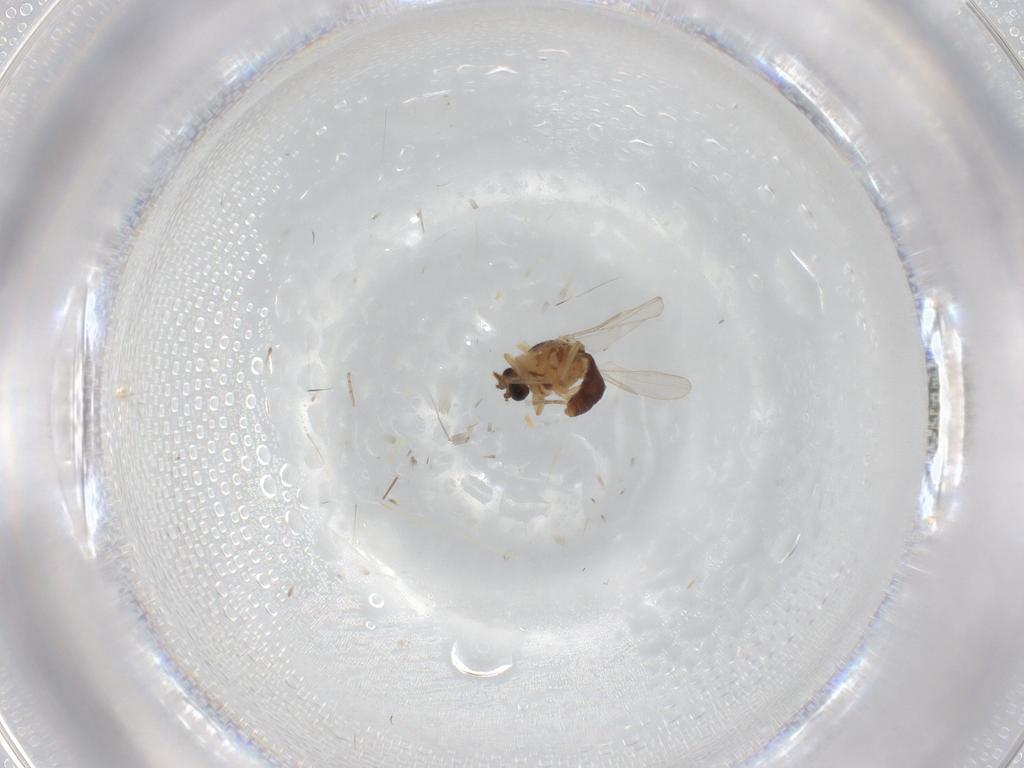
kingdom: Animalia
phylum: Arthropoda
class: Insecta
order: Diptera
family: Ceratopogonidae
